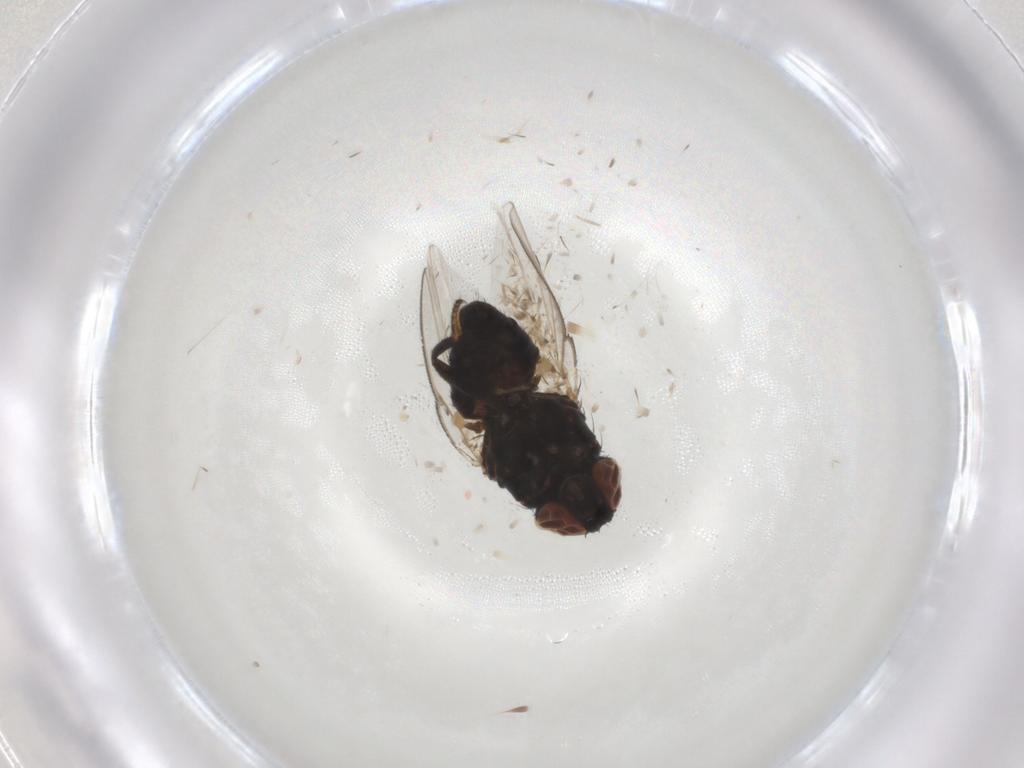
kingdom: Animalia
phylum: Arthropoda
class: Insecta
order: Diptera
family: Milichiidae
